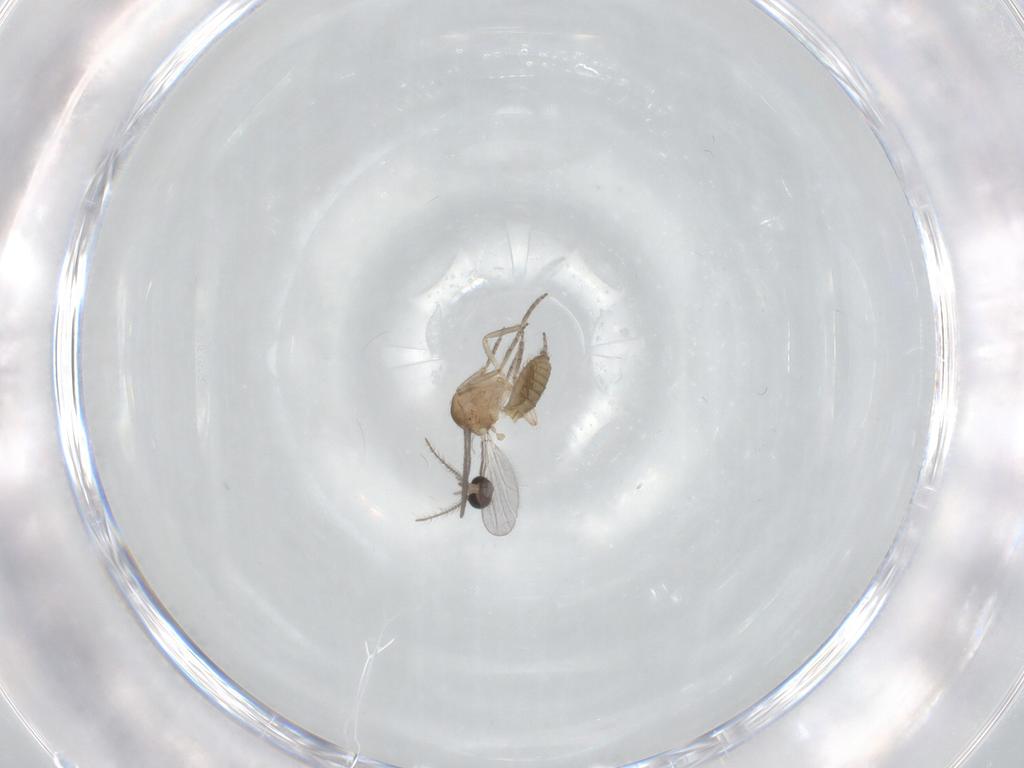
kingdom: Animalia
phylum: Arthropoda
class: Insecta
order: Diptera
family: Ceratopogonidae
